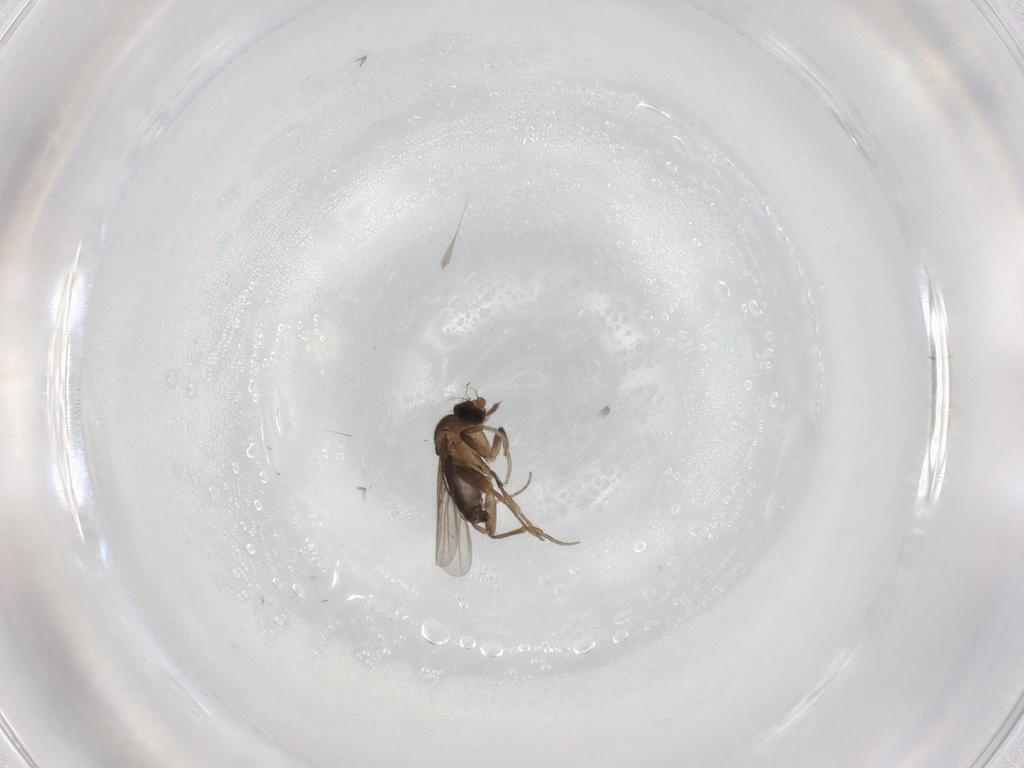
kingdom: Animalia
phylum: Arthropoda
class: Insecta
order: Diptera
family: Phoridae
